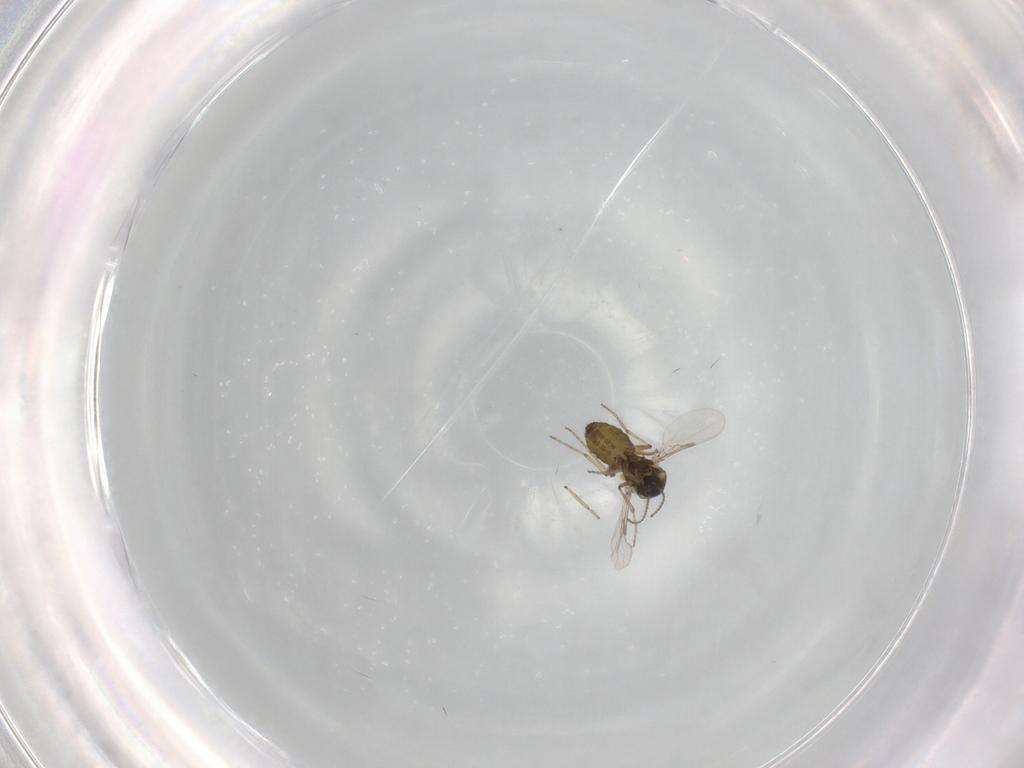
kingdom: Animalia
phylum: Arthropoda
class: Insecta
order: Diptera
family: Ceratopogonidae
